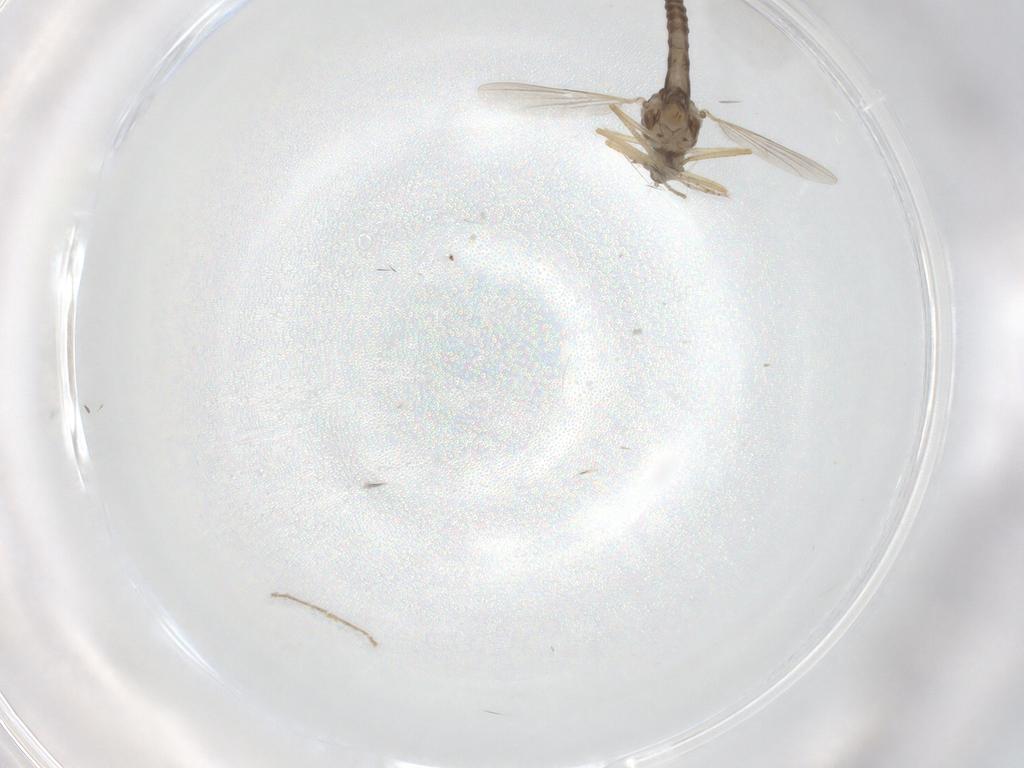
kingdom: Animalia
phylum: Arthropoda
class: Insecta
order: Diptera
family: Ceratopogonidae
